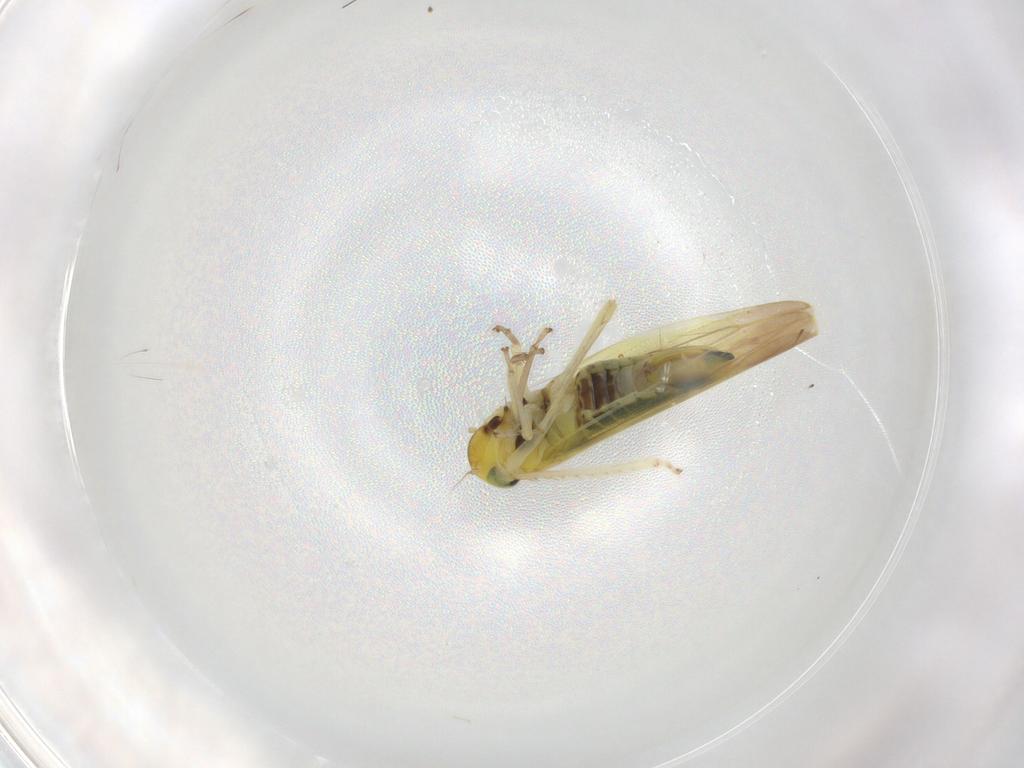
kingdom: Animalia
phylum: Arthropoda
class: Insecta
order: Hemiptera
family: Cicadellidae
